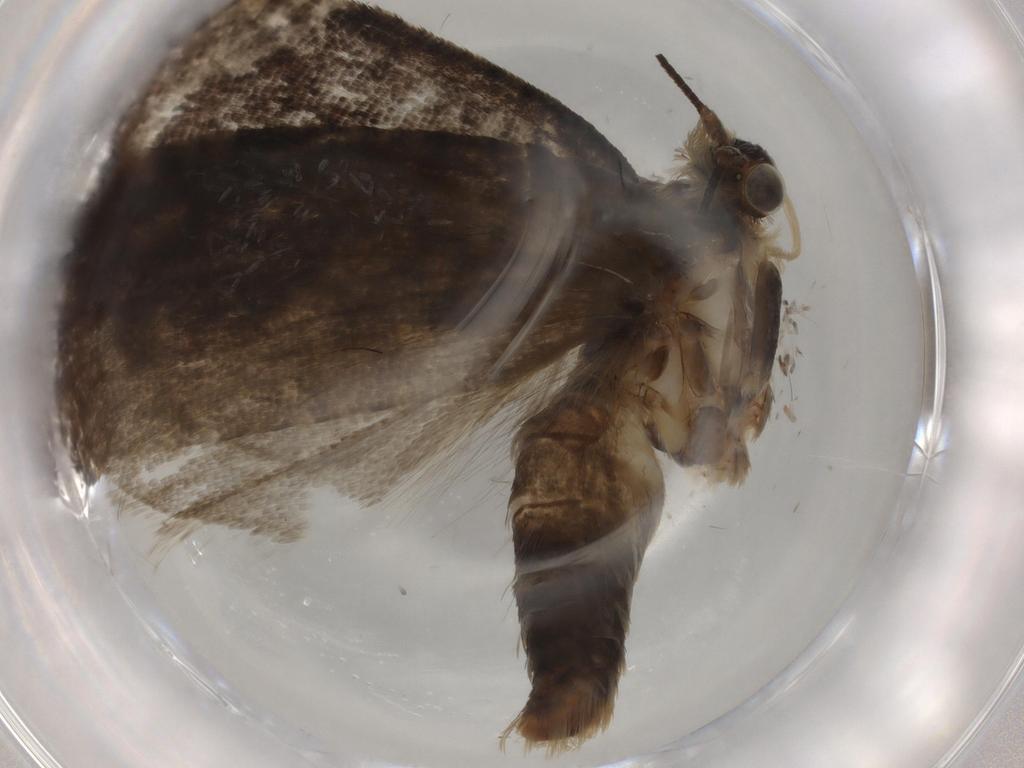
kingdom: Animalia
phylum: Arthropoda
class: Insecta
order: Lepidoptera
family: Tortricidae
